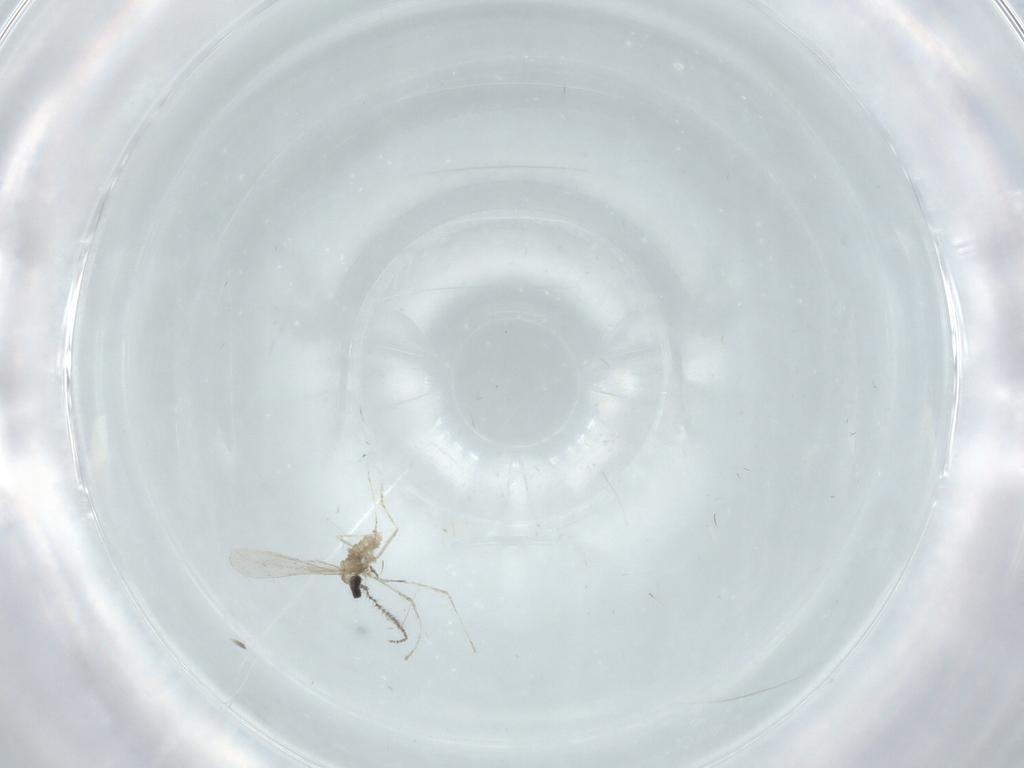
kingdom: Animalia
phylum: Arthropoda
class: Insecta
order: Diptera
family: Cecidomyiidae
